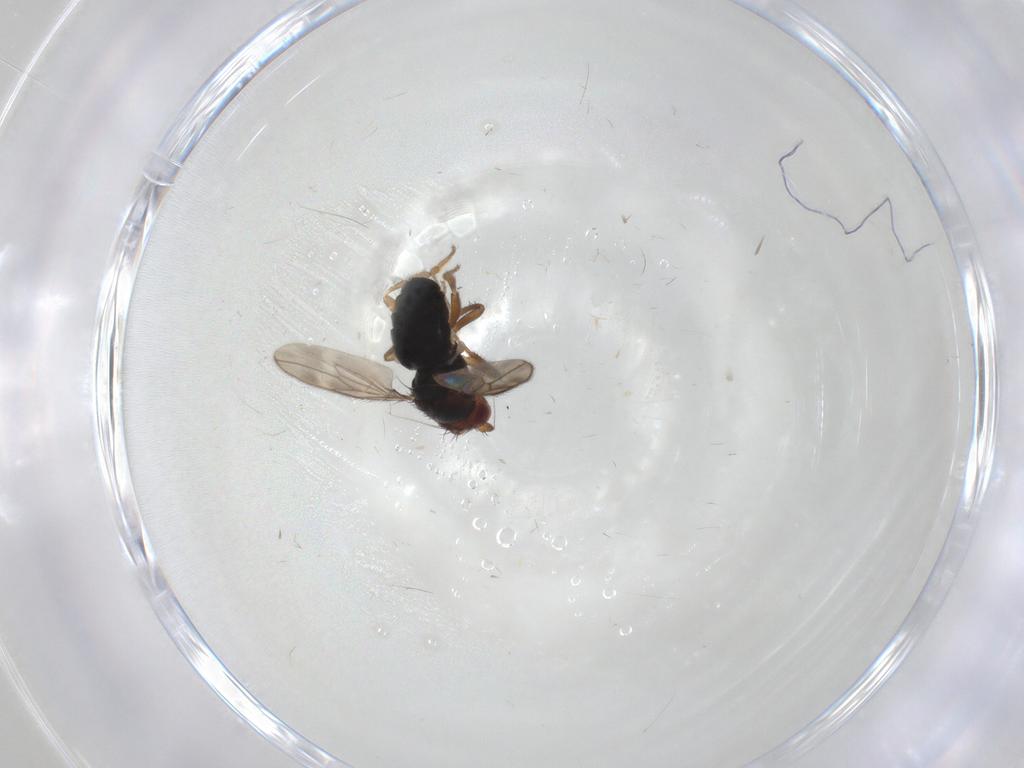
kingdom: Animalia
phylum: Arthropoda
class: Insecta
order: Diptera
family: Sphaeroceridae
